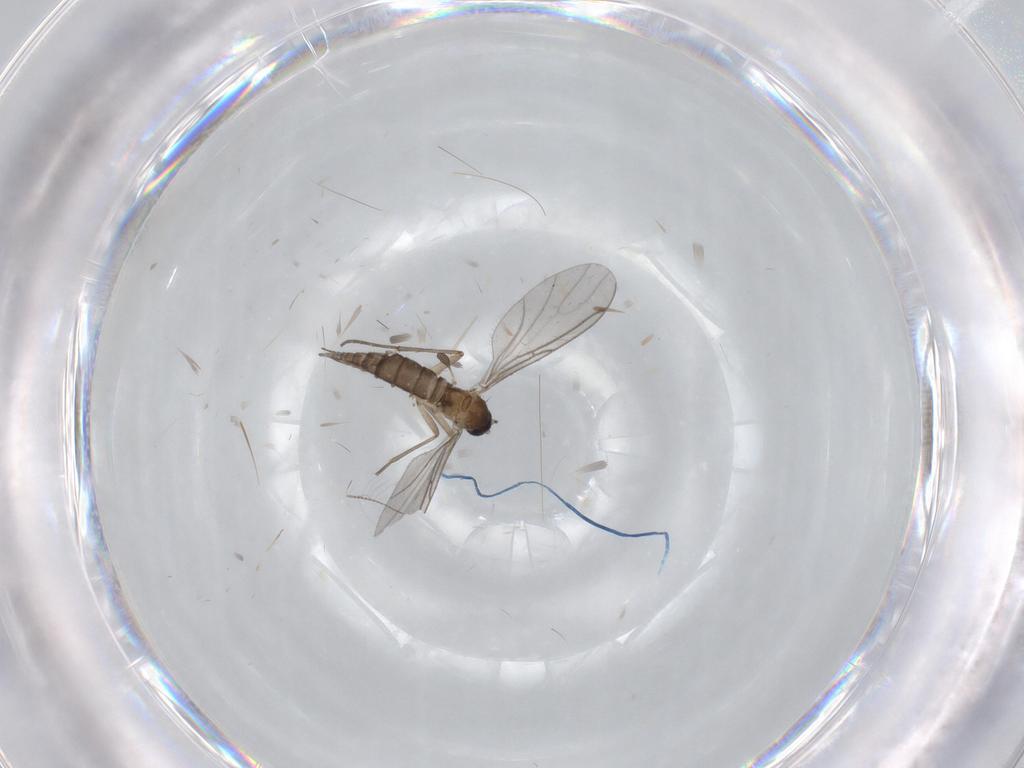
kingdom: Animalia
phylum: Arthropoda
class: Insecta
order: Diptera
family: Sciaridae
